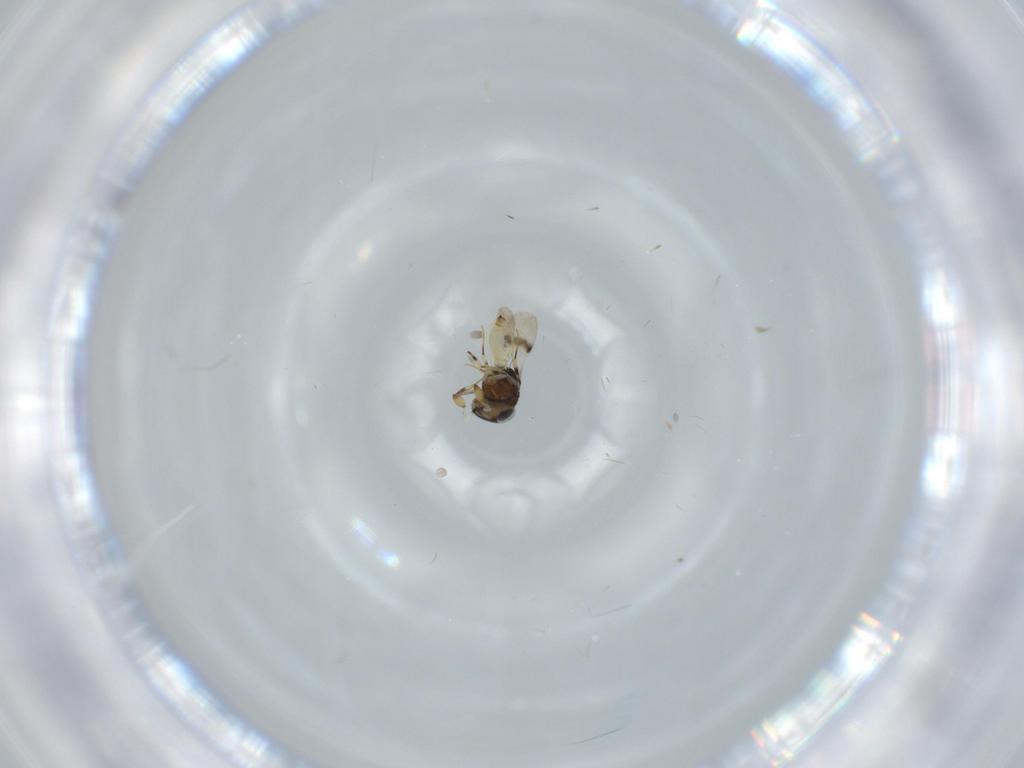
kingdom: Animalia
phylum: Arthropoda
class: Insecta
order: Hymenoptera
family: Scelionidae
